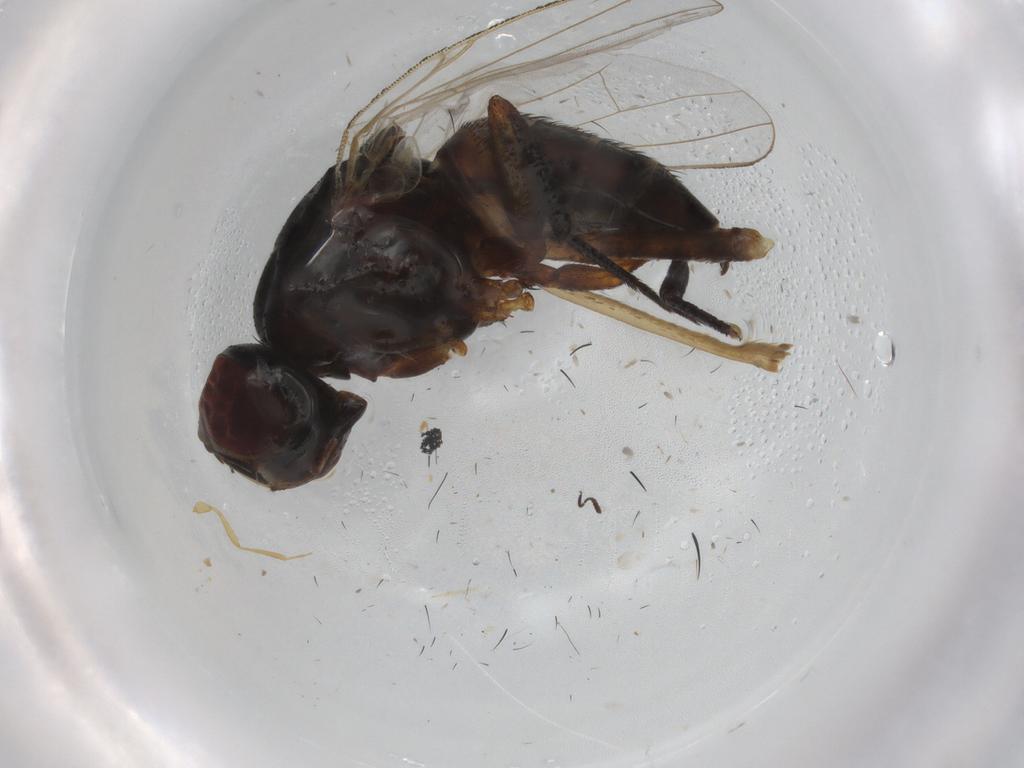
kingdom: Animalia
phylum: Arthropoda
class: Insecta
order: Diptera
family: Glossinidae
